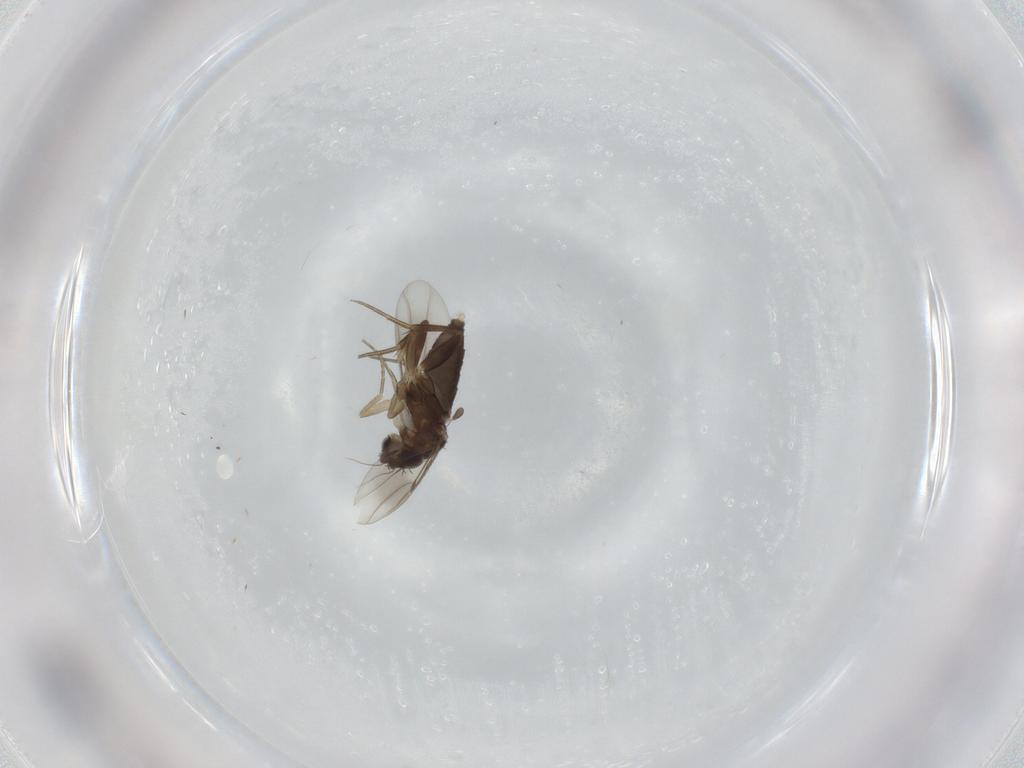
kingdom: Animalia
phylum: Arthropoda
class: Insecta
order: Diptera
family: Phoridae
